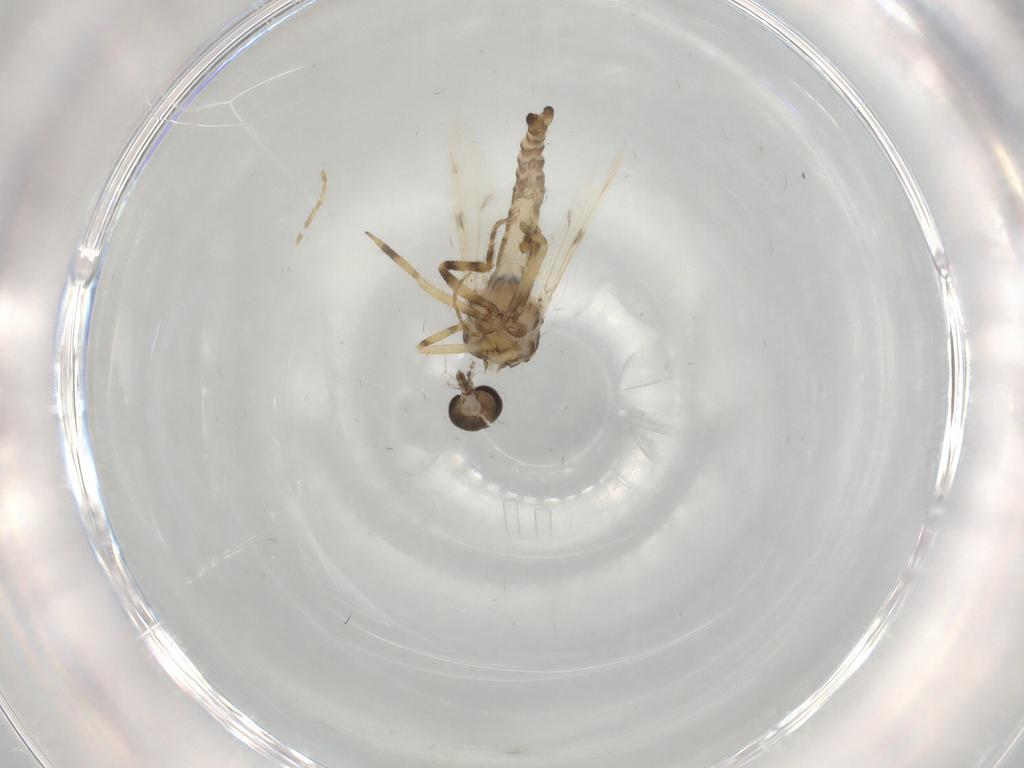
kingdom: Animalia
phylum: Arthropoda
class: Insecta
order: Diptera
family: Ceratopogonidae
